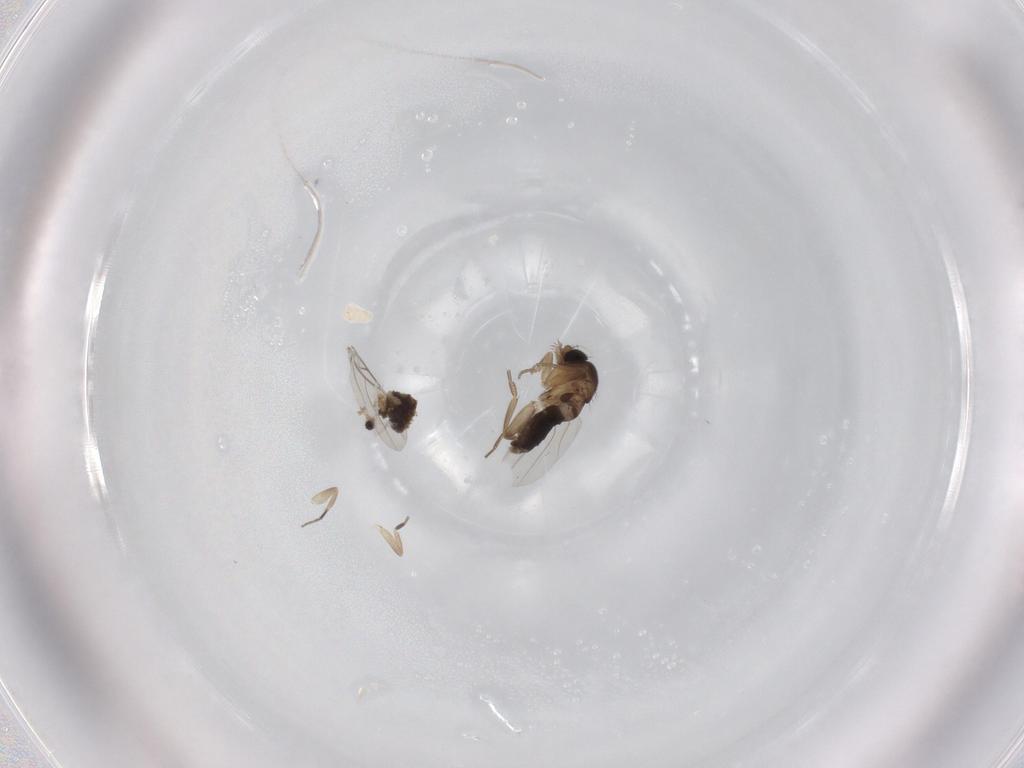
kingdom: Animalia
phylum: Arthropoda
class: Insecta
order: Diptera
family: Phoridae
